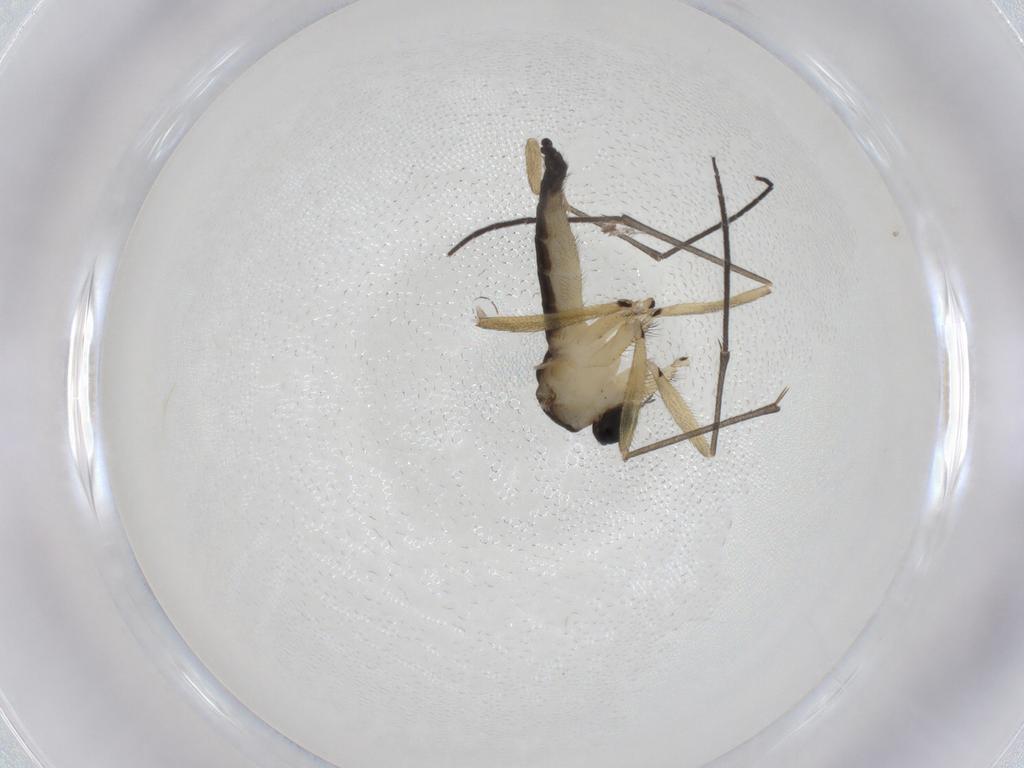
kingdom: Animalia
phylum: Arthropoda
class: Insecta
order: Diptera
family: Sciaridae
